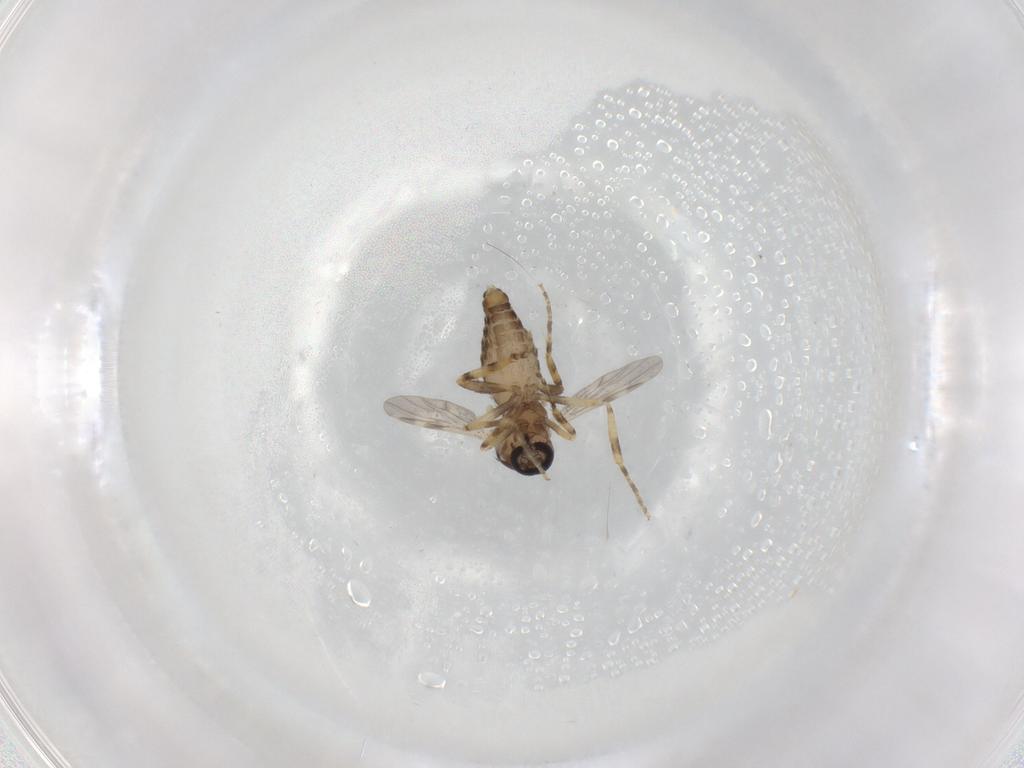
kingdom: Animalia
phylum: Arthropoda
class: Insecta
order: Diptera
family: Ceratopogonidae
